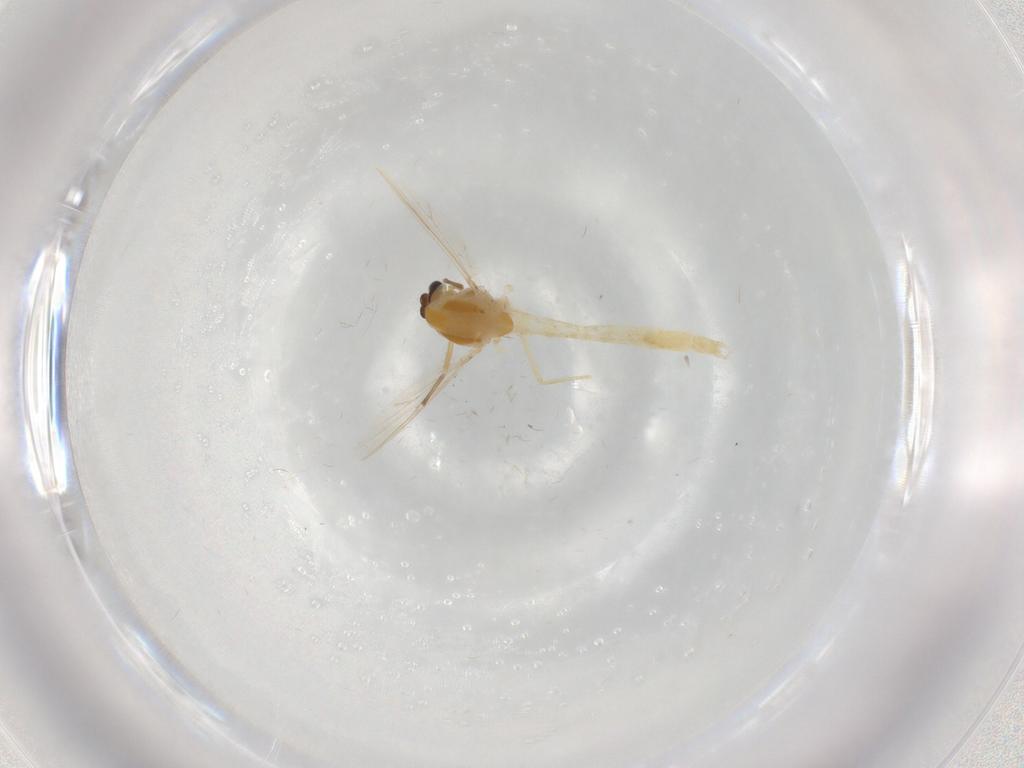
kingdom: Animalia
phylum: Arthropoda
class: Insecta
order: Diptera
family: Chironomidae
